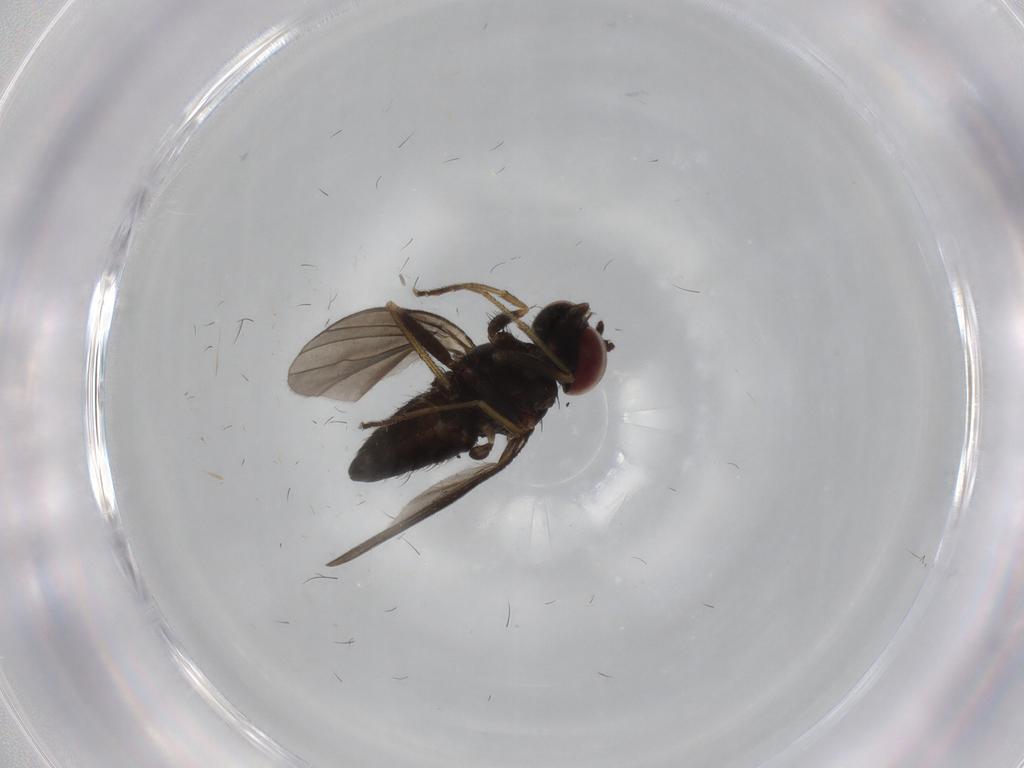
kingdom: Animalia
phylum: Arthropoda
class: Insecta
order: Diptera
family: Dolichopodidae
